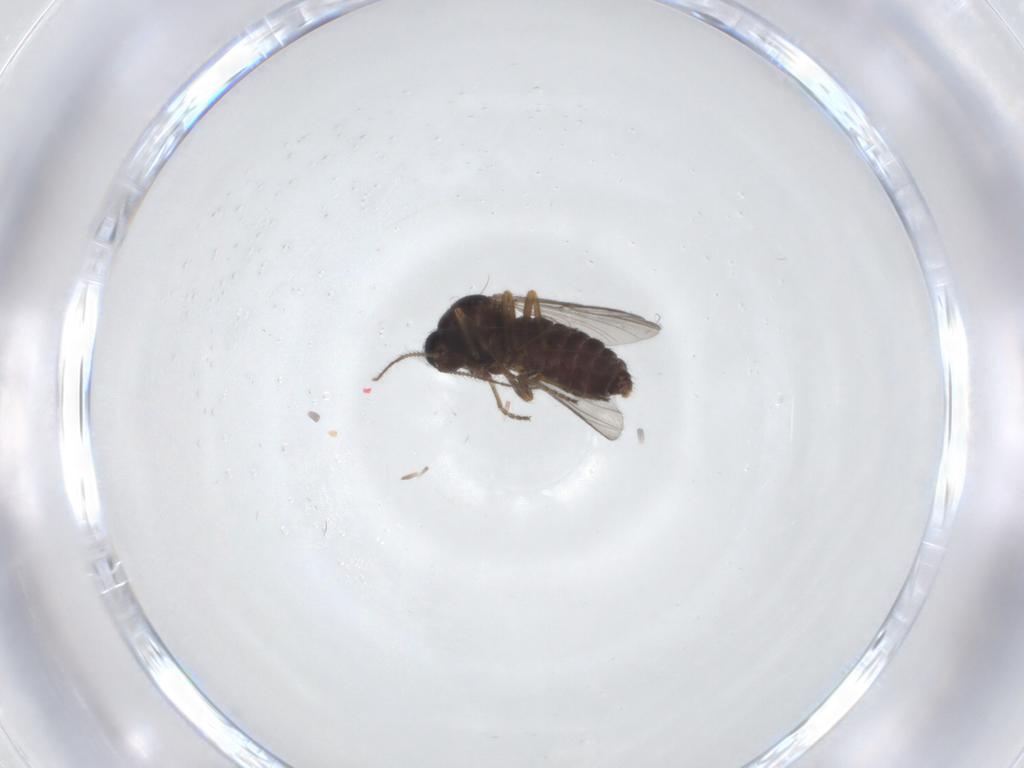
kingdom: Animalia
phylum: Arthropoda
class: Insecta
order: Diptera
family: Ceratopogonidae
